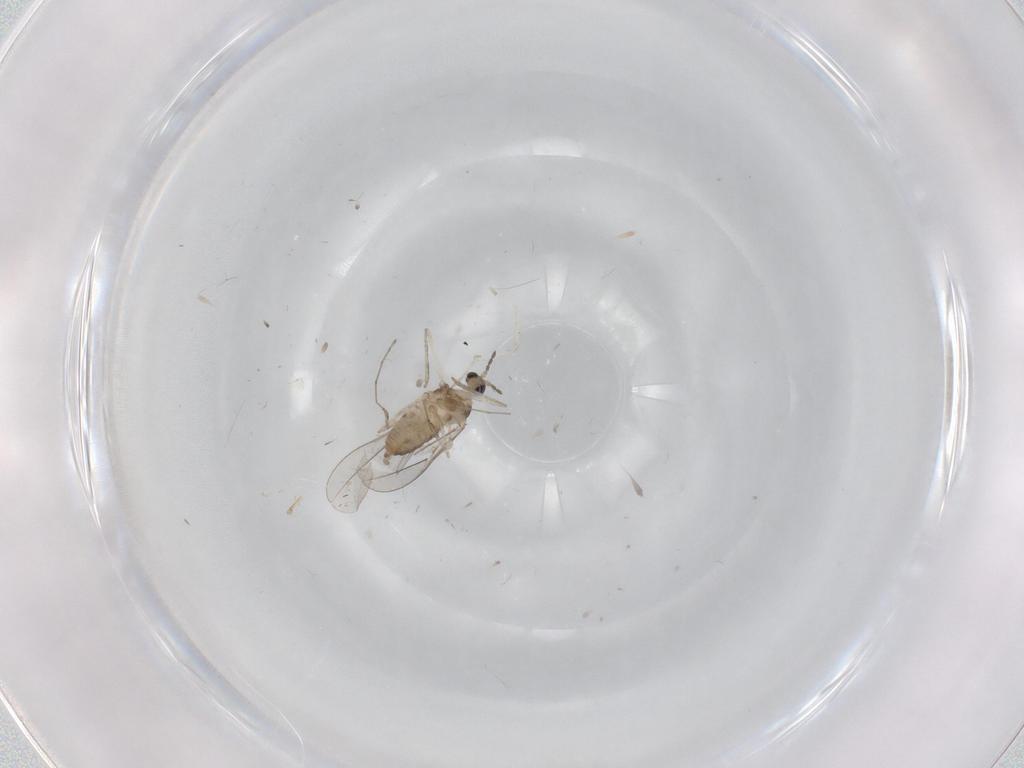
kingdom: Animalia
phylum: Arthropoda
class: Insecta
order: Diptera
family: Cecidomyiidae
